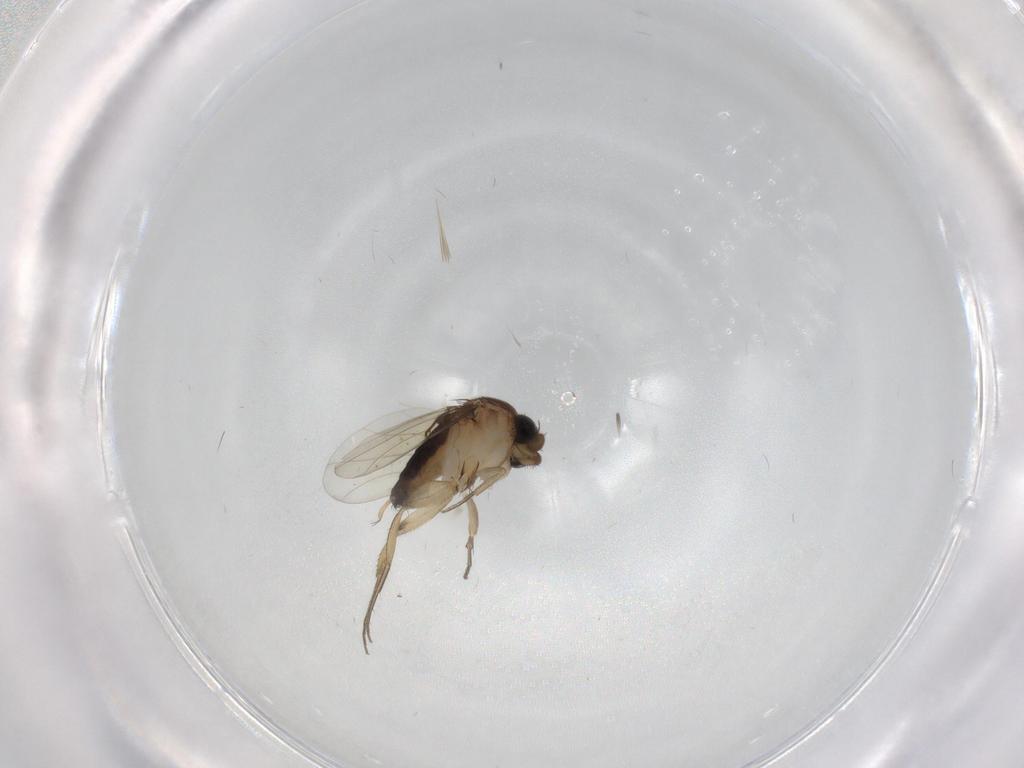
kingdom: Animalia
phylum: Arthropoda
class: Insecta
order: Diptera
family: Phoridae
